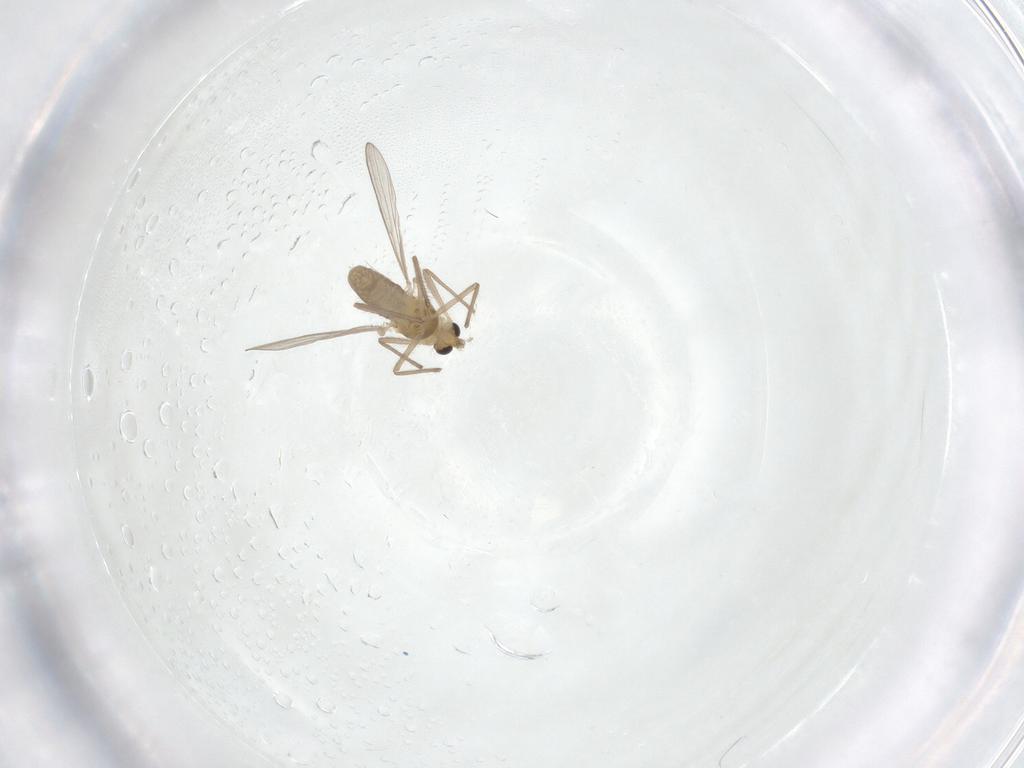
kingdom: Animalia
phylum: Arthropoda
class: Insecta
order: Diptera
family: Chironomidae
